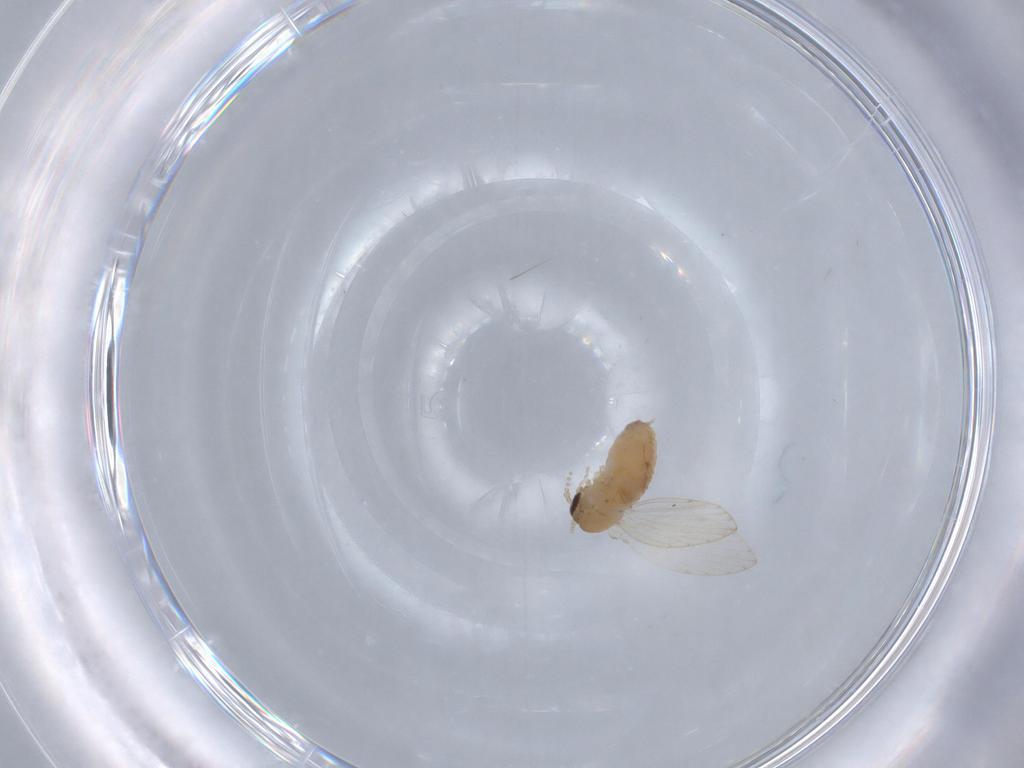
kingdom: Animalia
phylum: Arthropoda
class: Insecta
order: Diptera
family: Psychodidae
